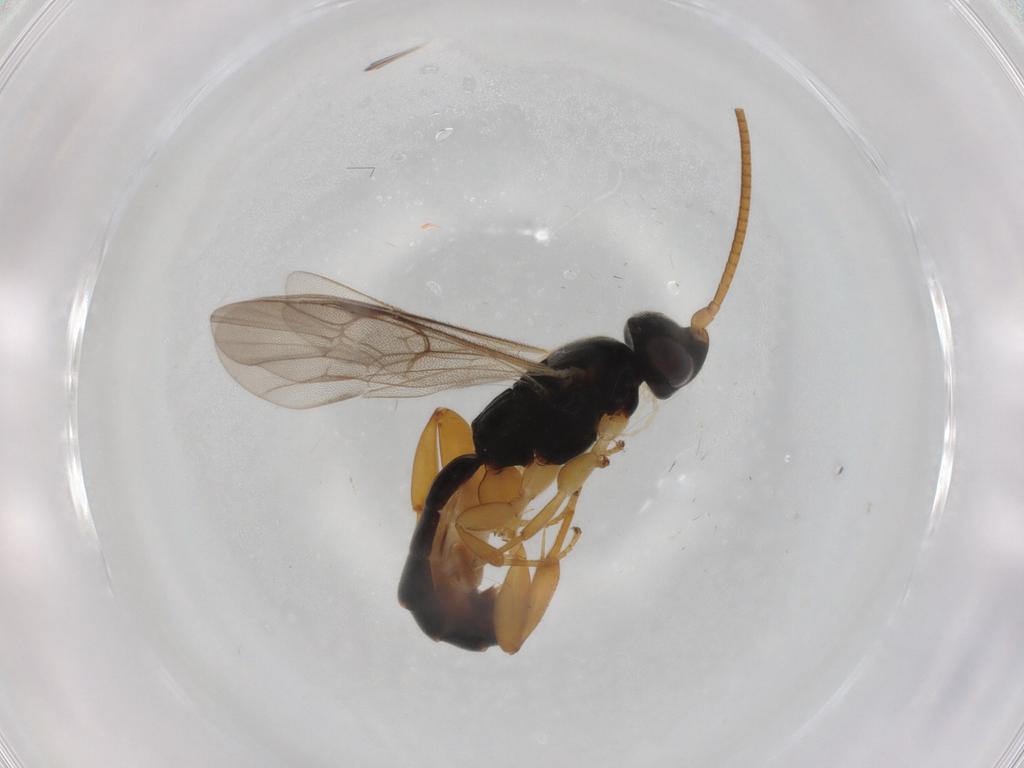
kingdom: Animalia
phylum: Arthropoda
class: Insecta
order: Hymenoptera
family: Ichneumonidae
